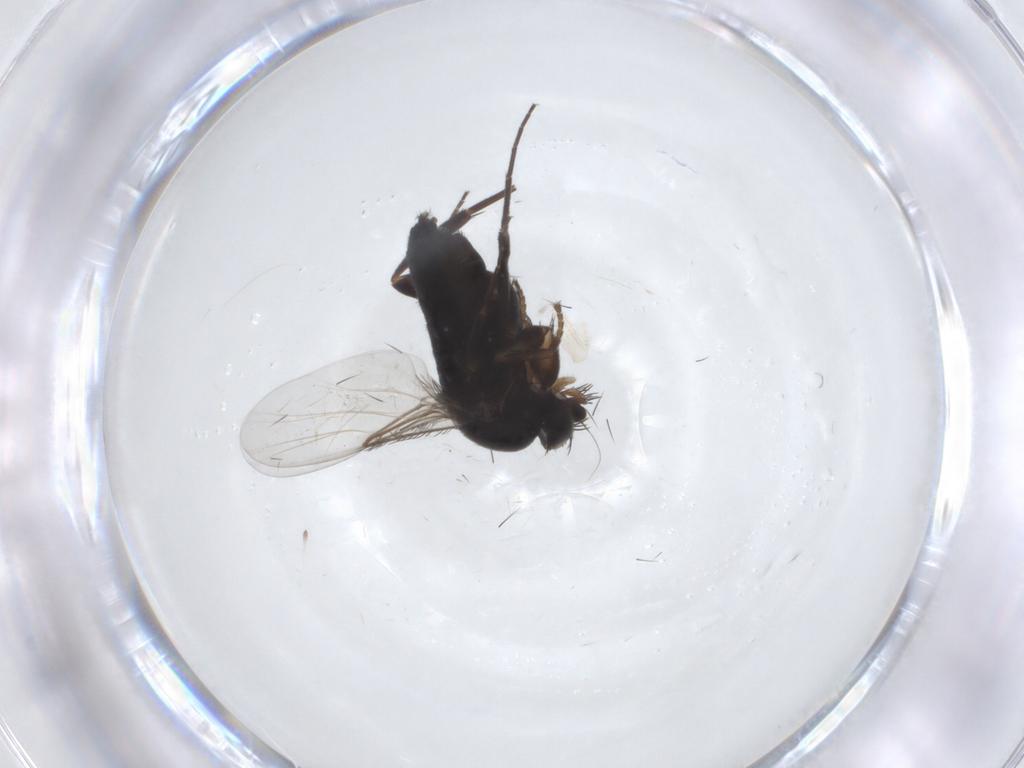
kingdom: Animalia
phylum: Arthropoda
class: Insecta
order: Diptera
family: Phoridae
